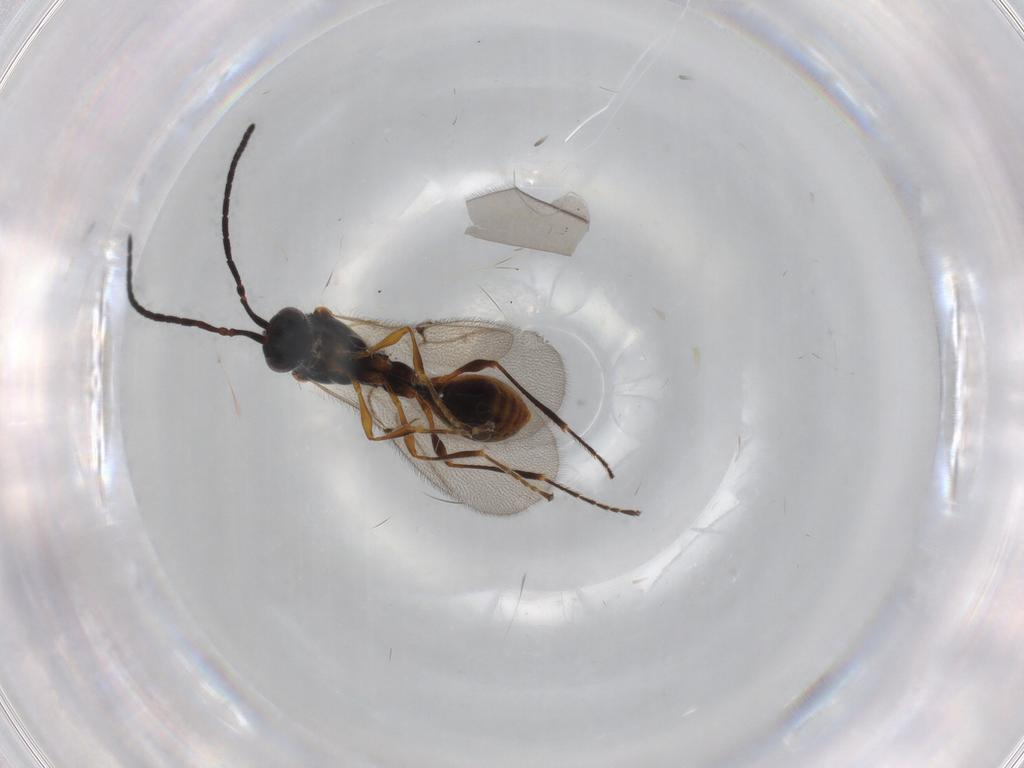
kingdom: Animalia
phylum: Arthropoda
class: Insecta
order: Hymenoptera
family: Diapriidae
